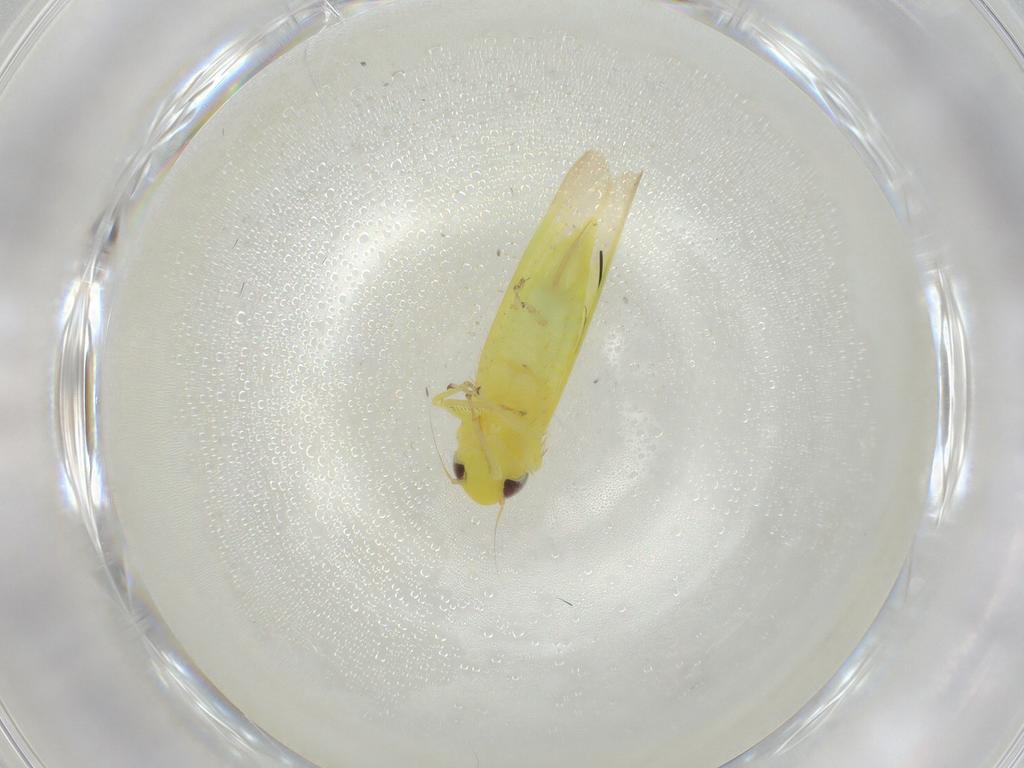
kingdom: Animalia
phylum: Arthropoda
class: Insecta
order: Hemiptera
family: Cicadellidae
